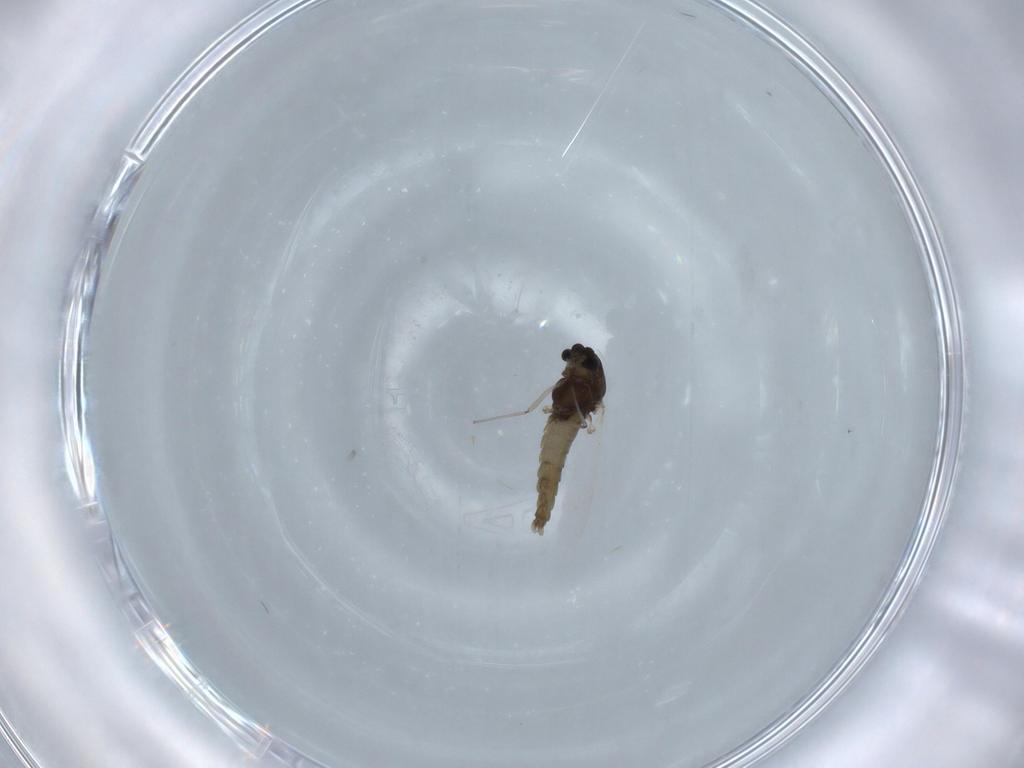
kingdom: Animalia
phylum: Arthropoda
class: Insecta
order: Diptera
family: Chironomidae
